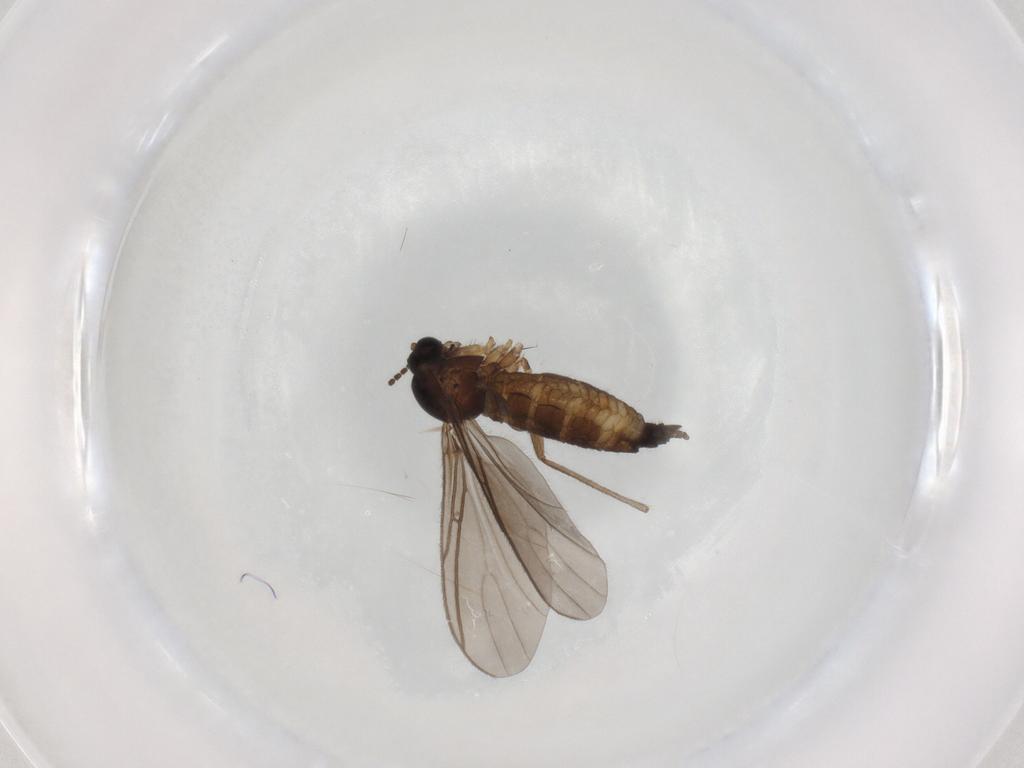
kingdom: Animalia
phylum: Arthropoda
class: Insecta
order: Diptera
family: Sciaridae
